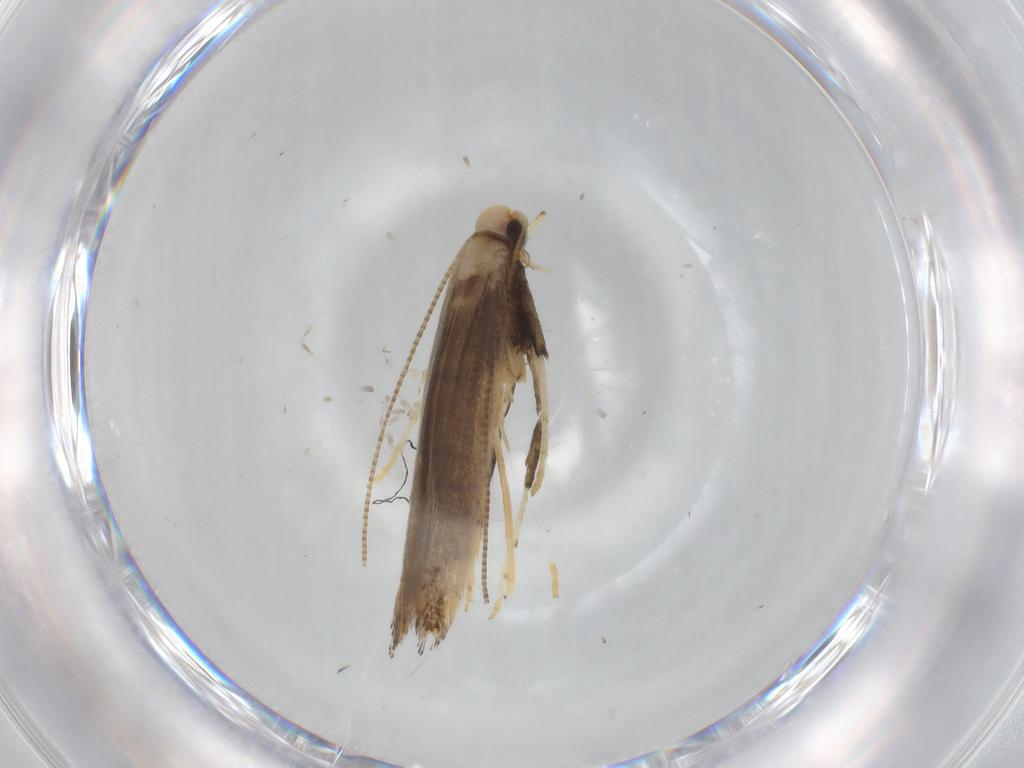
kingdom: Animalia
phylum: Arthropoda
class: Insecta
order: Lepidoptera
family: Gracillariidae
